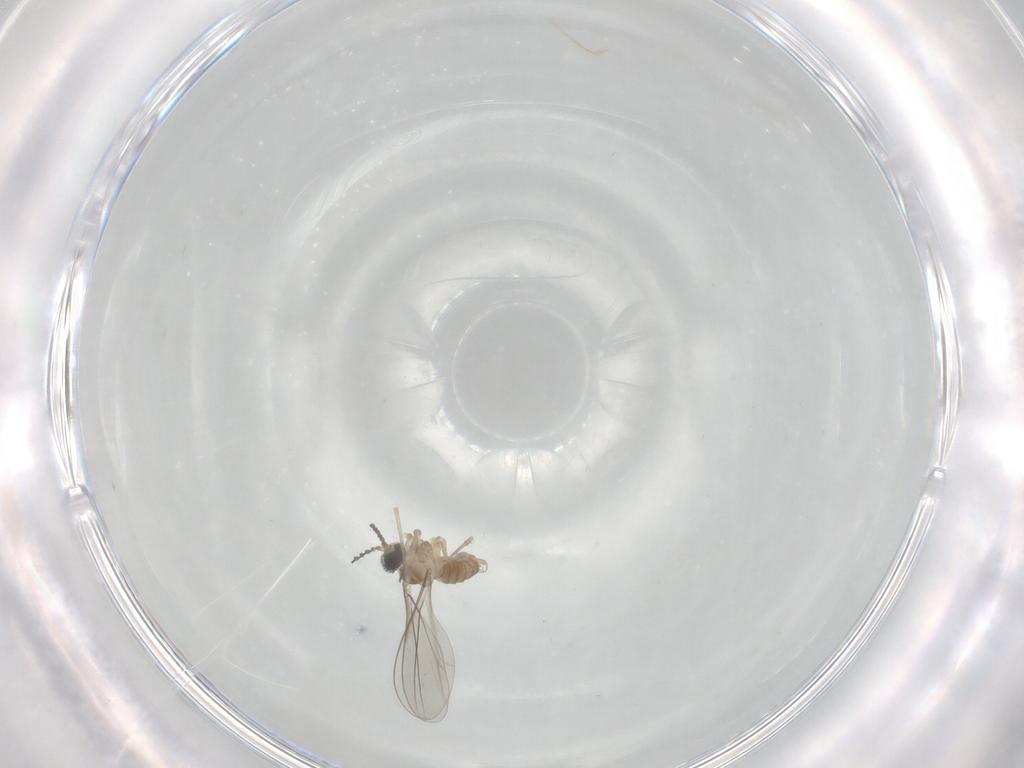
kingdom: Animalia
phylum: Arthropoda
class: Insecta
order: Diptera
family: Cecidomyiidae
